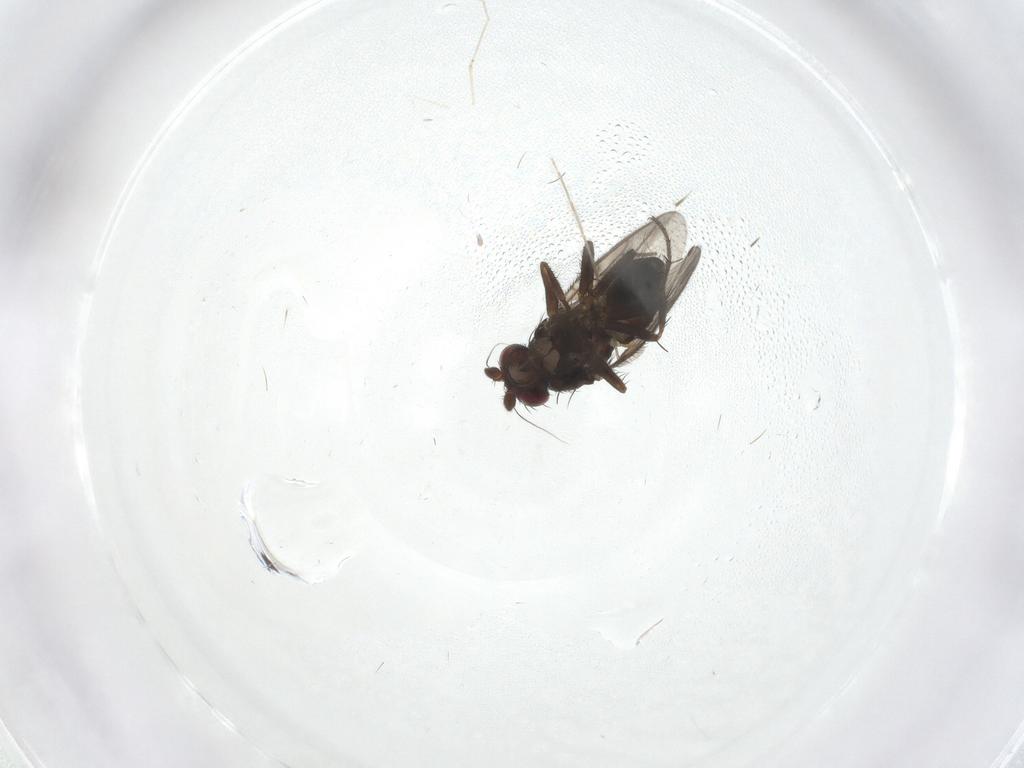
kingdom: Animalia
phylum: Arthropoda
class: Insecta
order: Diptera
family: Sphaeroceridae
